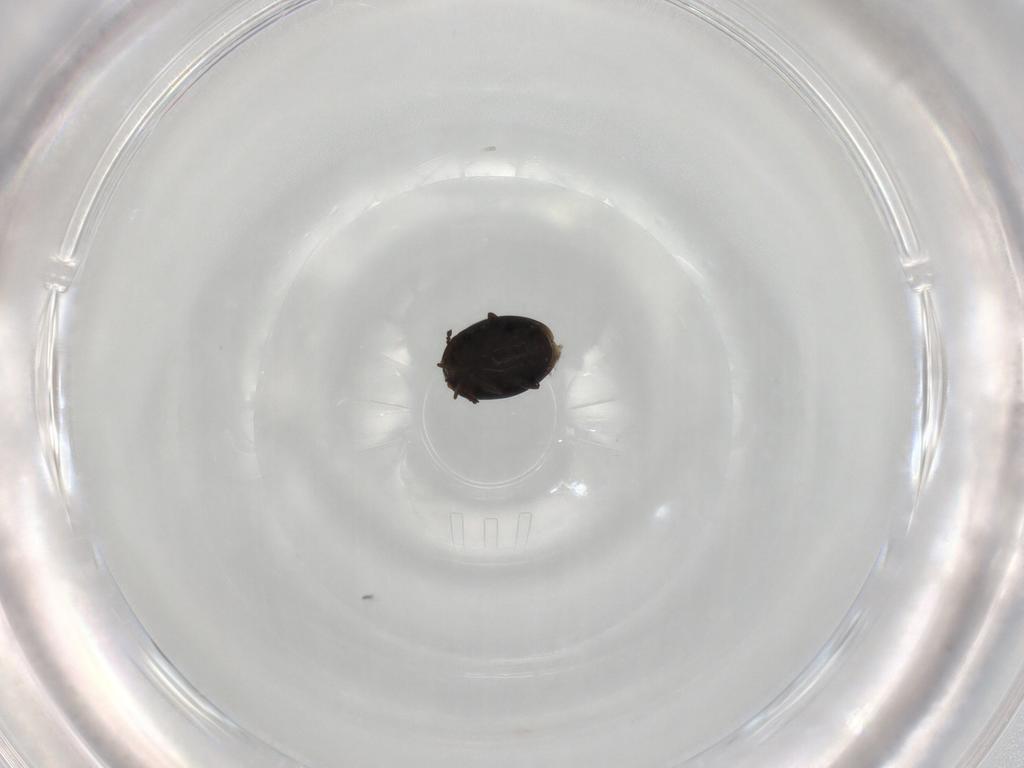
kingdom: Animalia
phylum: Arthropoda
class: Insecta
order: Coleoptera
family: Corylophidae
